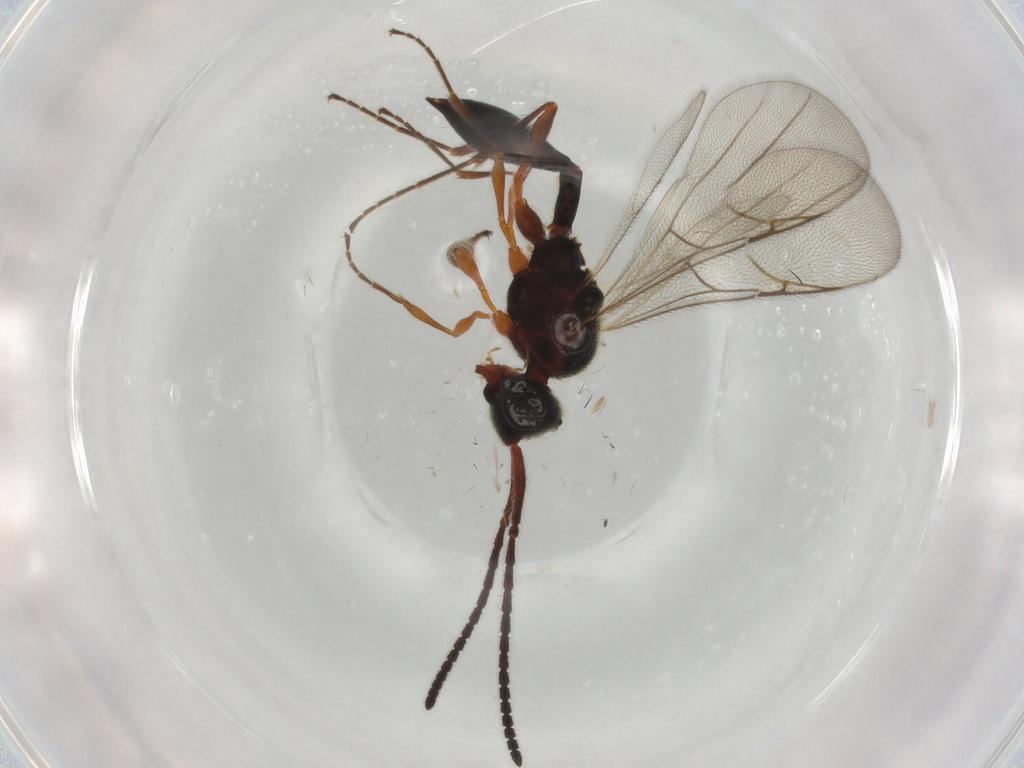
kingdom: Animalia
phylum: Arthropoda
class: Insecta
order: Hymenoptera
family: Diapriidae
